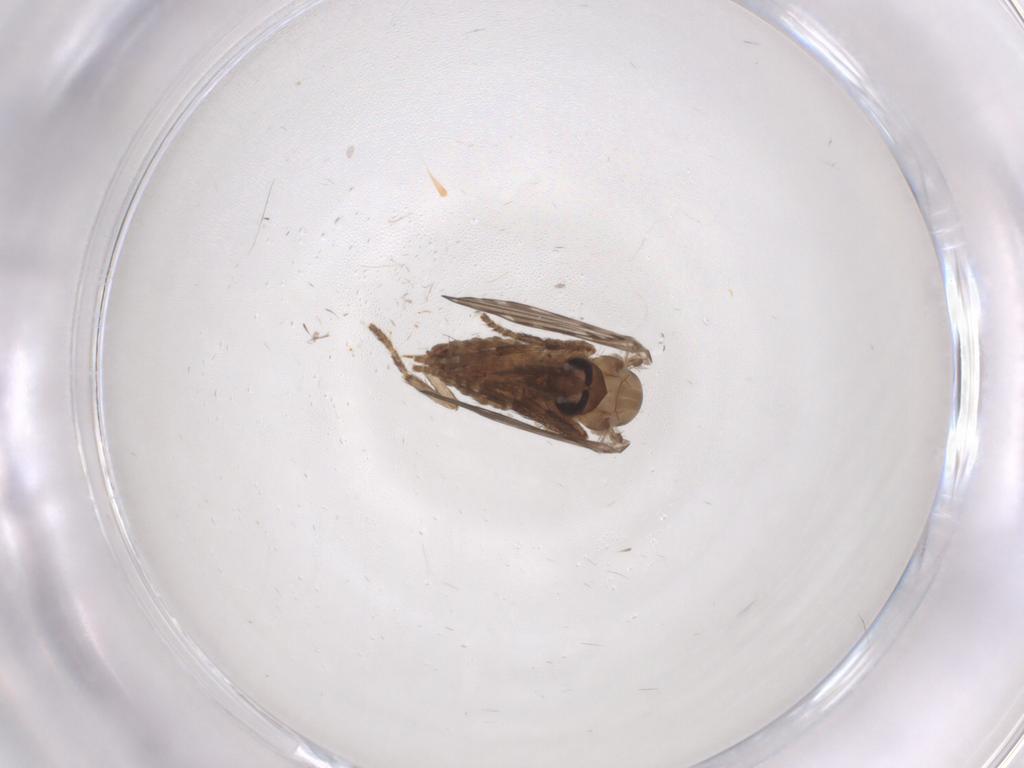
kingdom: Animalia
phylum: Arthropoda
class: Insecta
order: Diptera
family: Psychodidae
